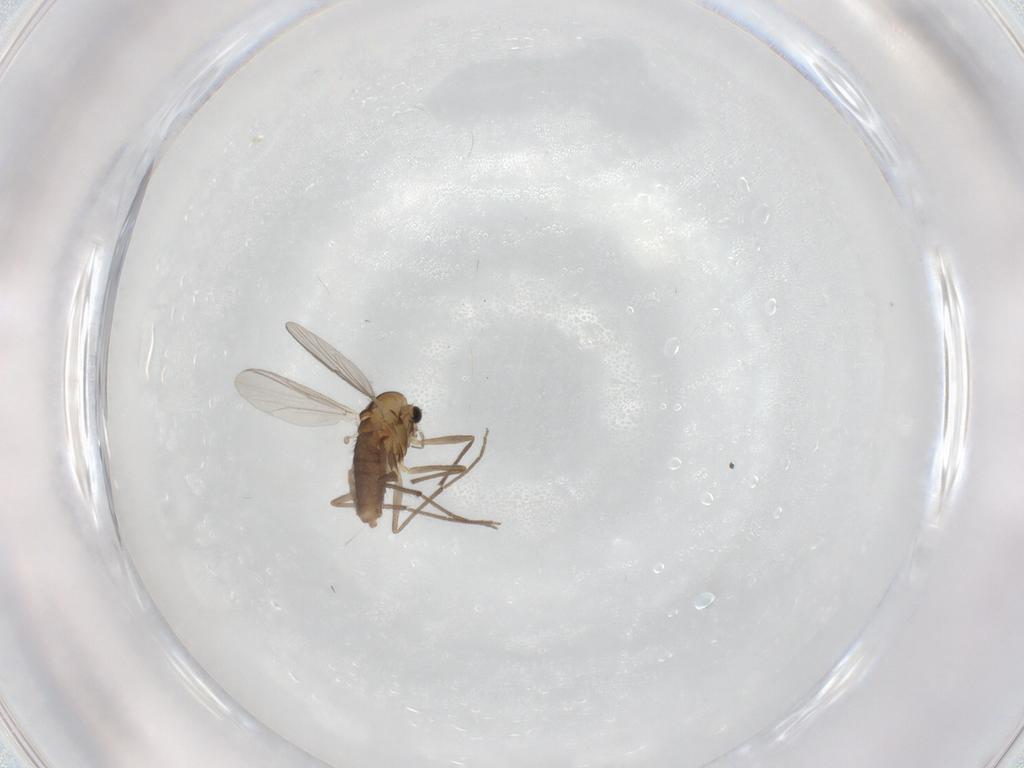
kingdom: Animalia
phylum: Arthropoda
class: Insecta
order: Diptera
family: Chironomidae
